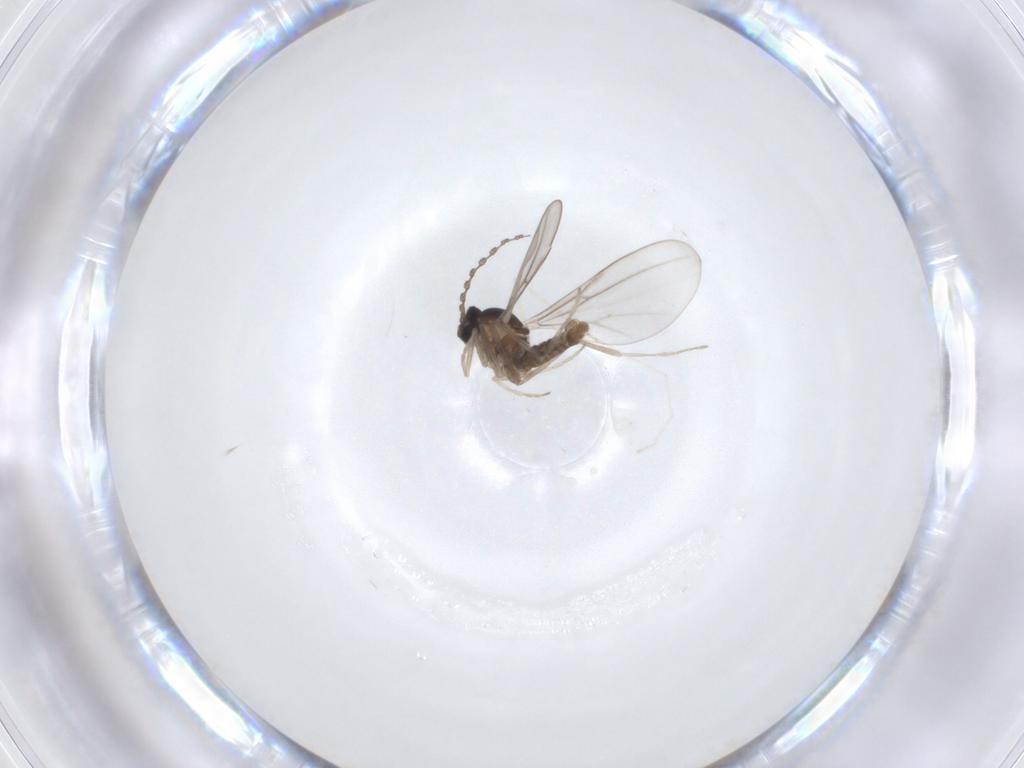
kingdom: Animalia
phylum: Arthropoda
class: Insecta
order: Diptera
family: Cecidomyiidae
